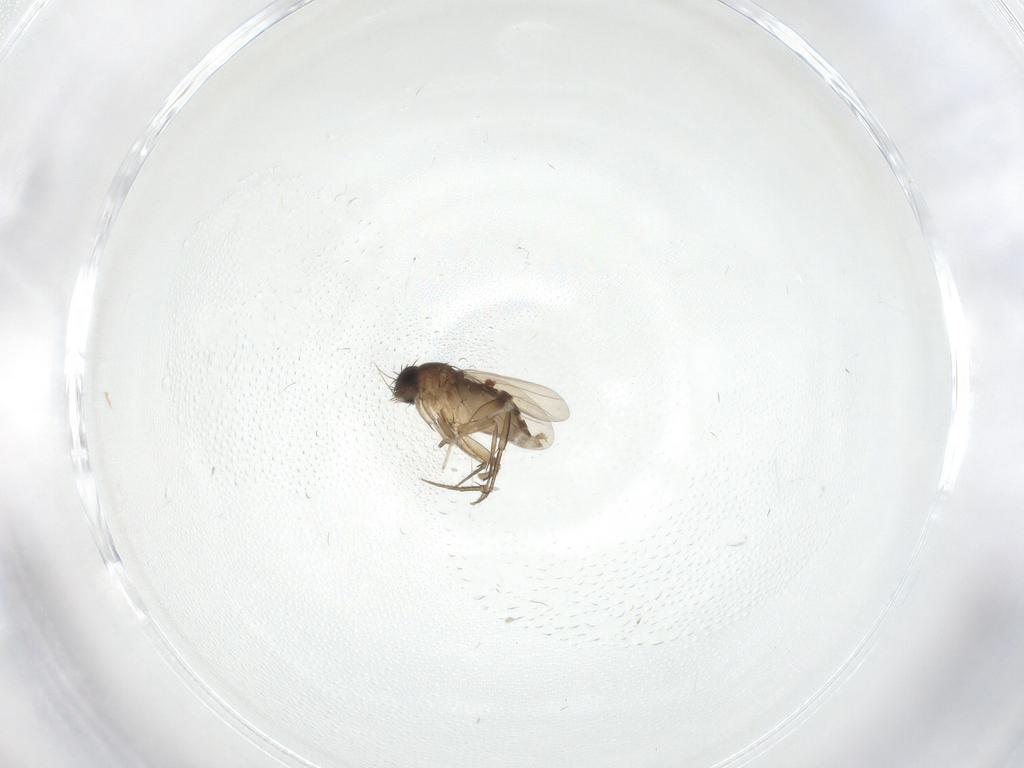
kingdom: Animalia
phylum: Arthropoda
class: Insecta
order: Diptera
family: Phoridae
